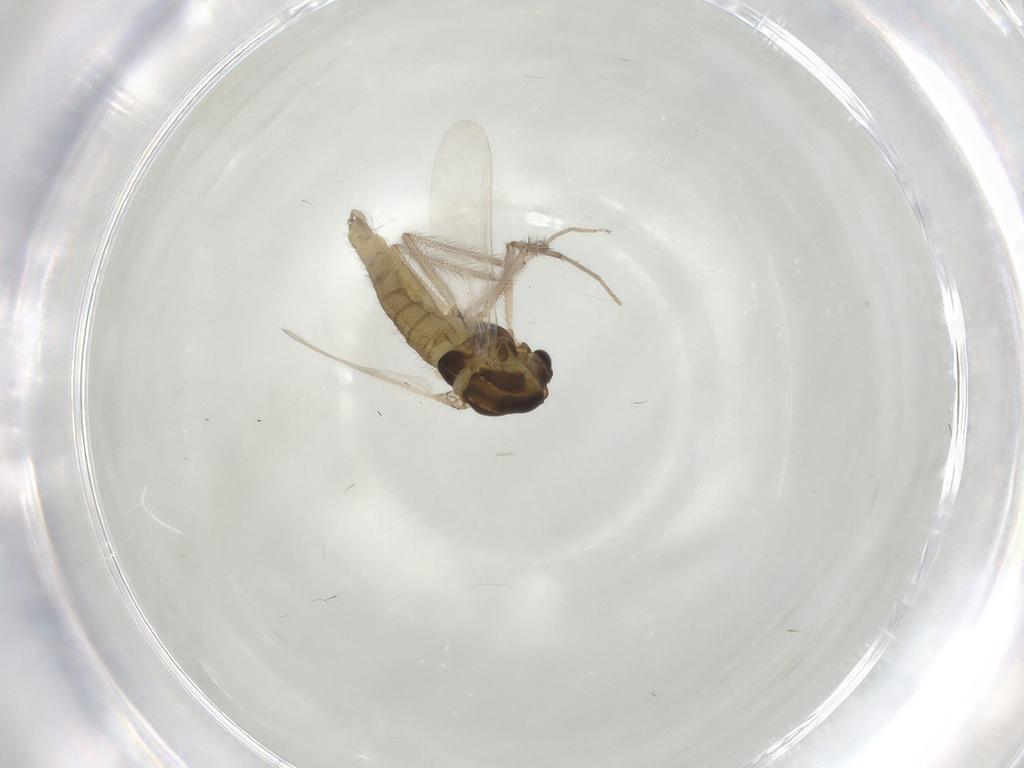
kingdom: Animalia
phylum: Arthropoda
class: Insecta
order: Diptera
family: Chironomidae
